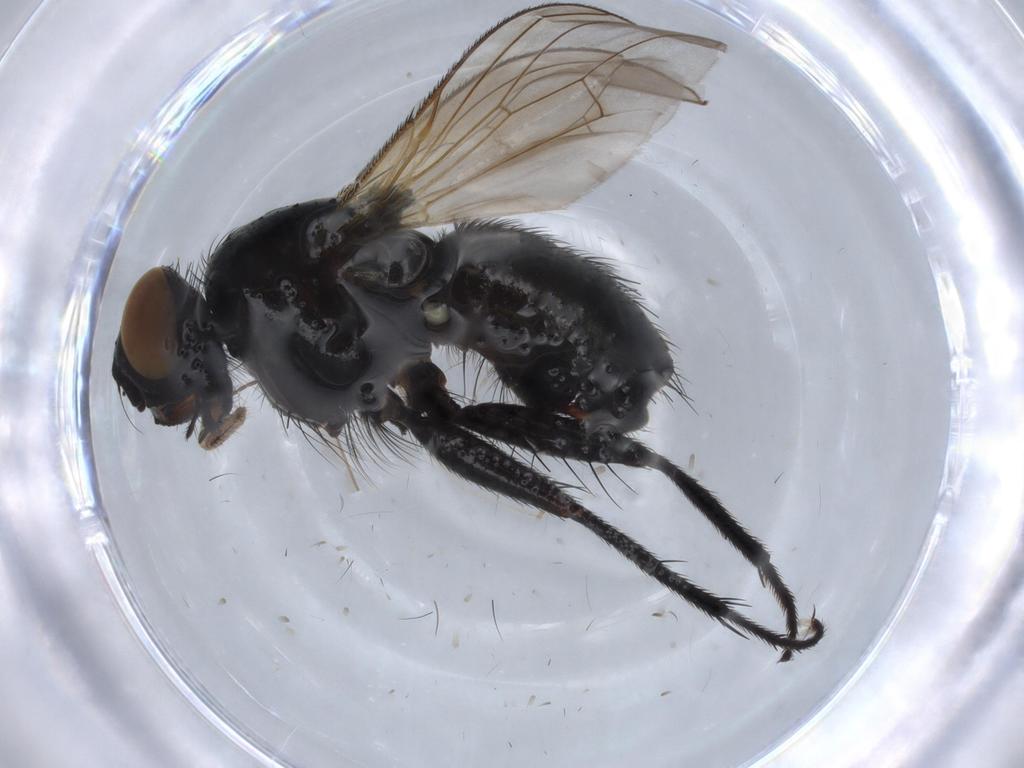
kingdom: Animalia
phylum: Arthropoda
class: Insecta
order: Diptera
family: Muscidae
